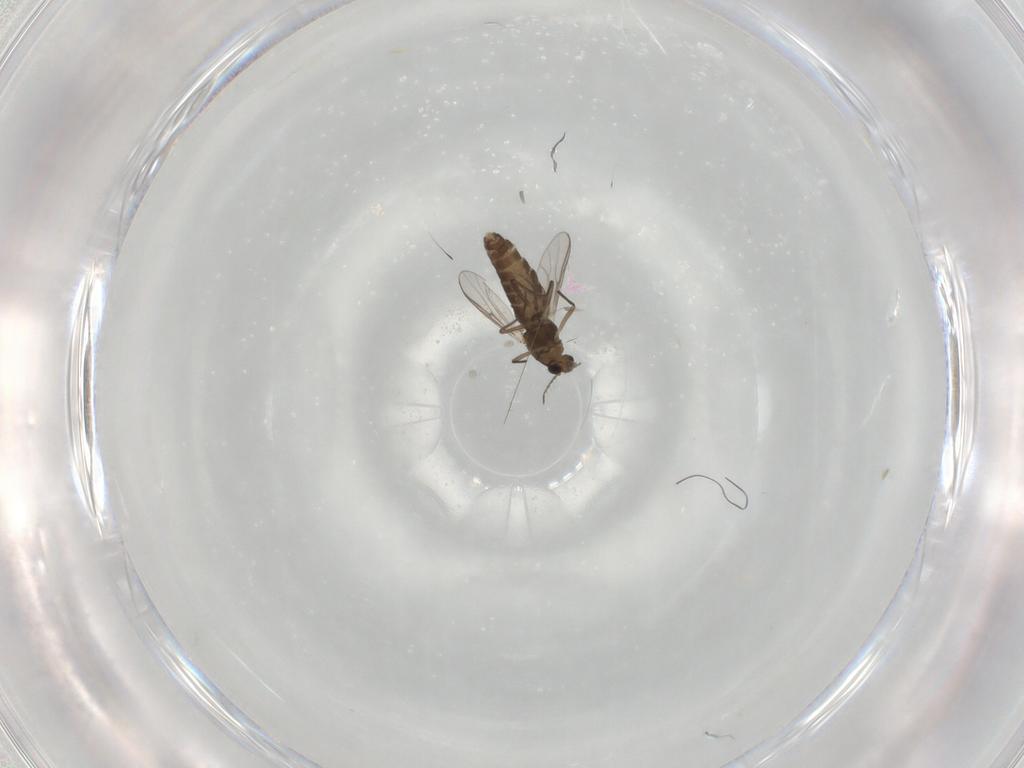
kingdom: Animalia
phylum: Arthropoda
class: Insecta
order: Diptera
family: Chironomidae
